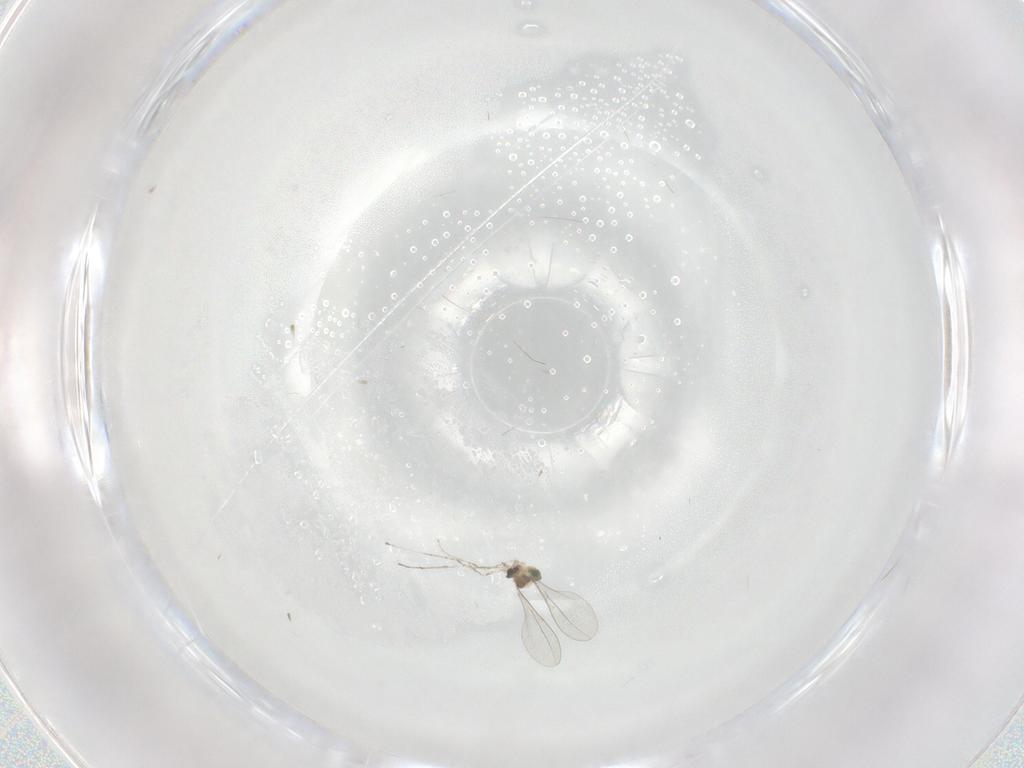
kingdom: Animalia
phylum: Arthropoda
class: Insecta
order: Diptera
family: Cecidomyiidae
